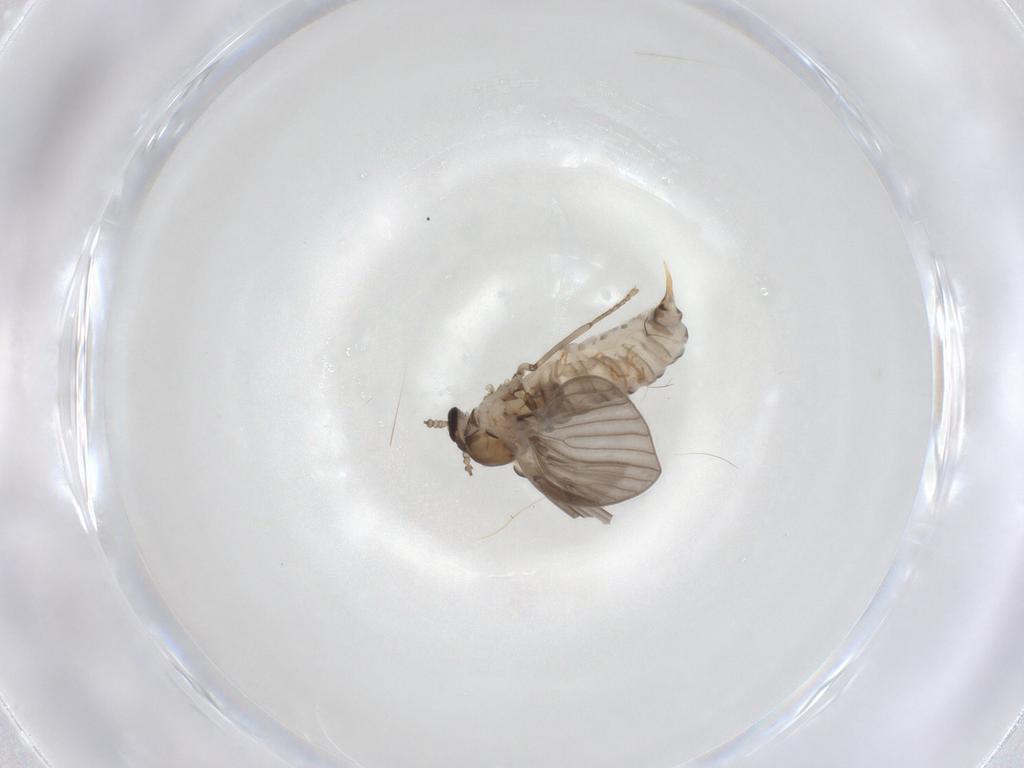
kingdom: Animalia
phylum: Arthropoda
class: Insecta
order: Diptera
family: Psychodidae
